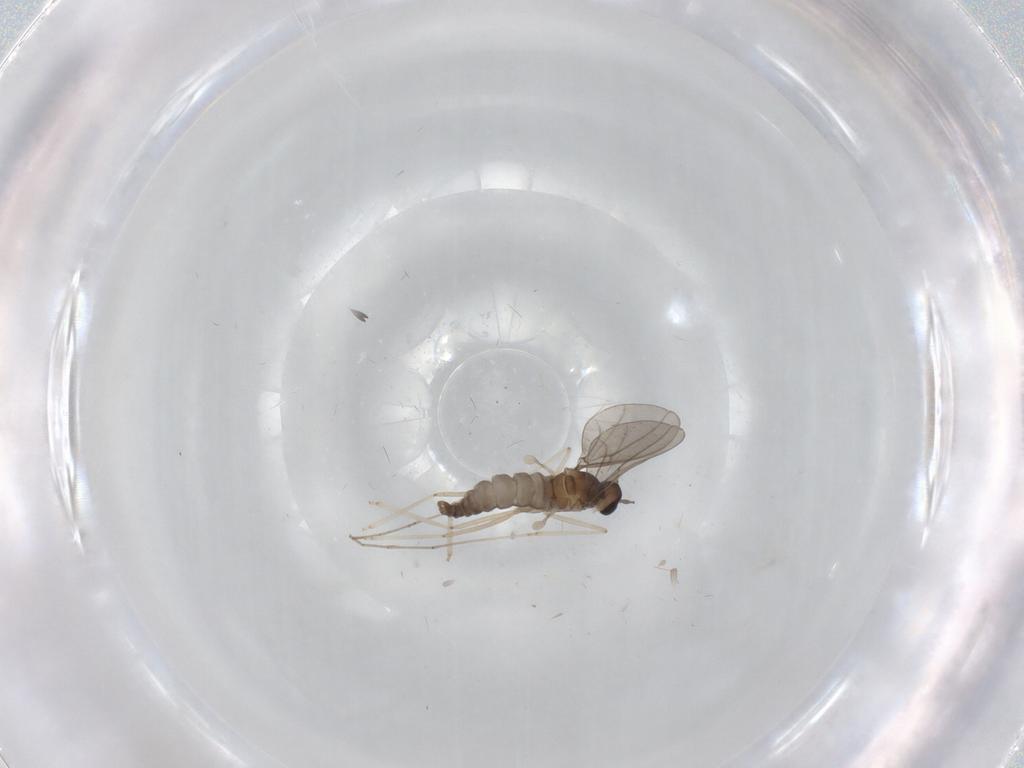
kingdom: Animalia
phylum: Arthropoda
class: Insecta
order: Diptera
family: Cecidomyiidae
